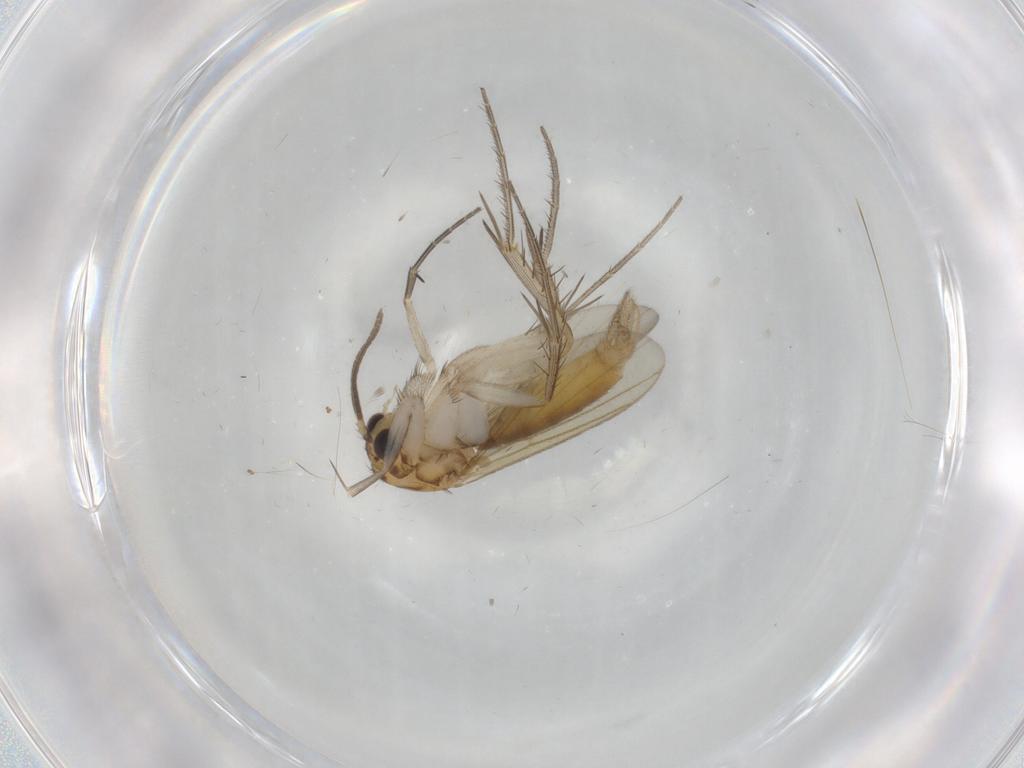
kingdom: Animalia
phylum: Arthropoda
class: Insecta
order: Diptera
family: Mycetophilidae
